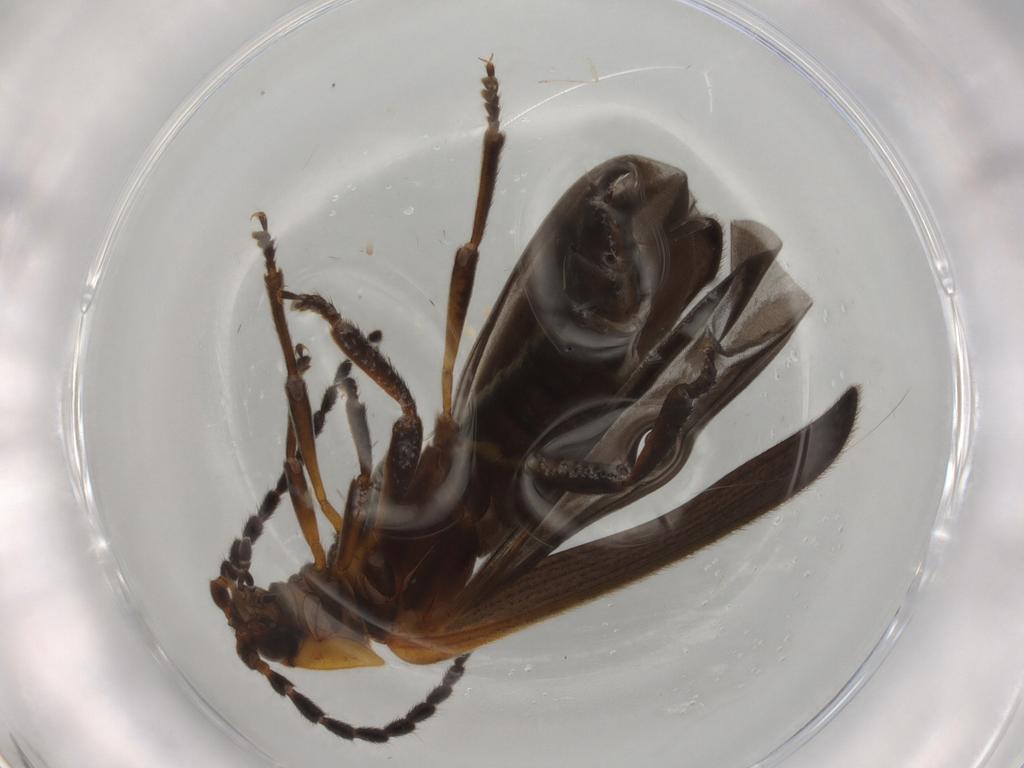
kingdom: Animalia
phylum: Arthropoda
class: Insecta
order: Coleoptera
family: Lycidae
